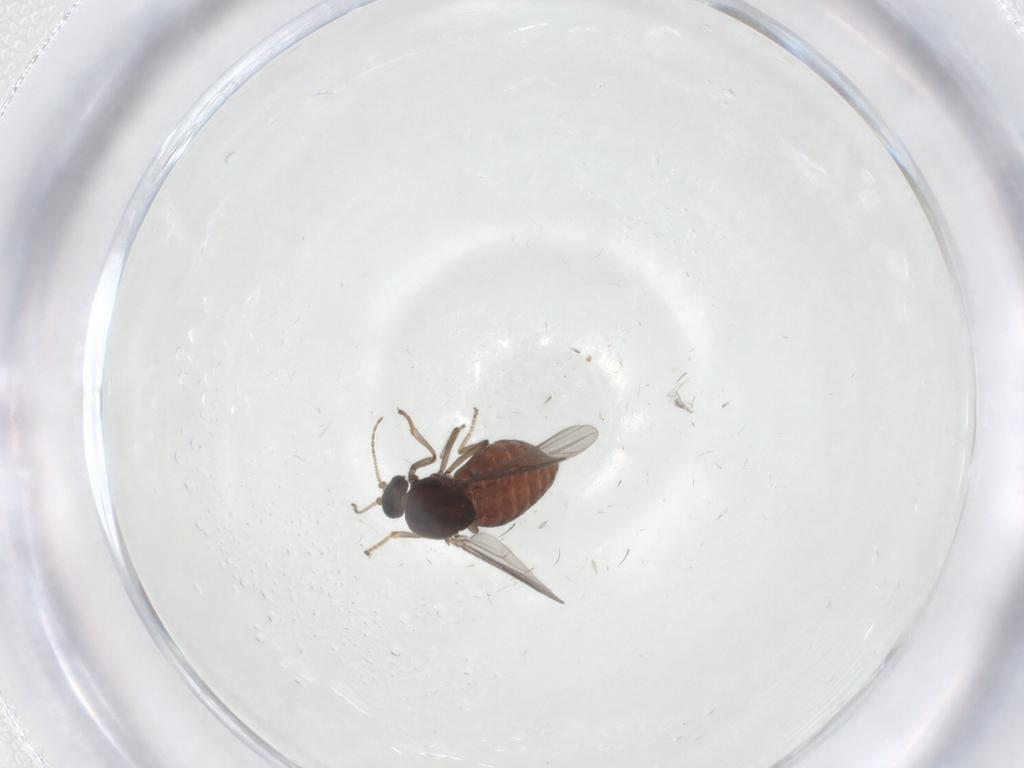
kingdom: Animalia
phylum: Arthropoda
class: Insecta
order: Diptera
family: Ceratopogonidae
